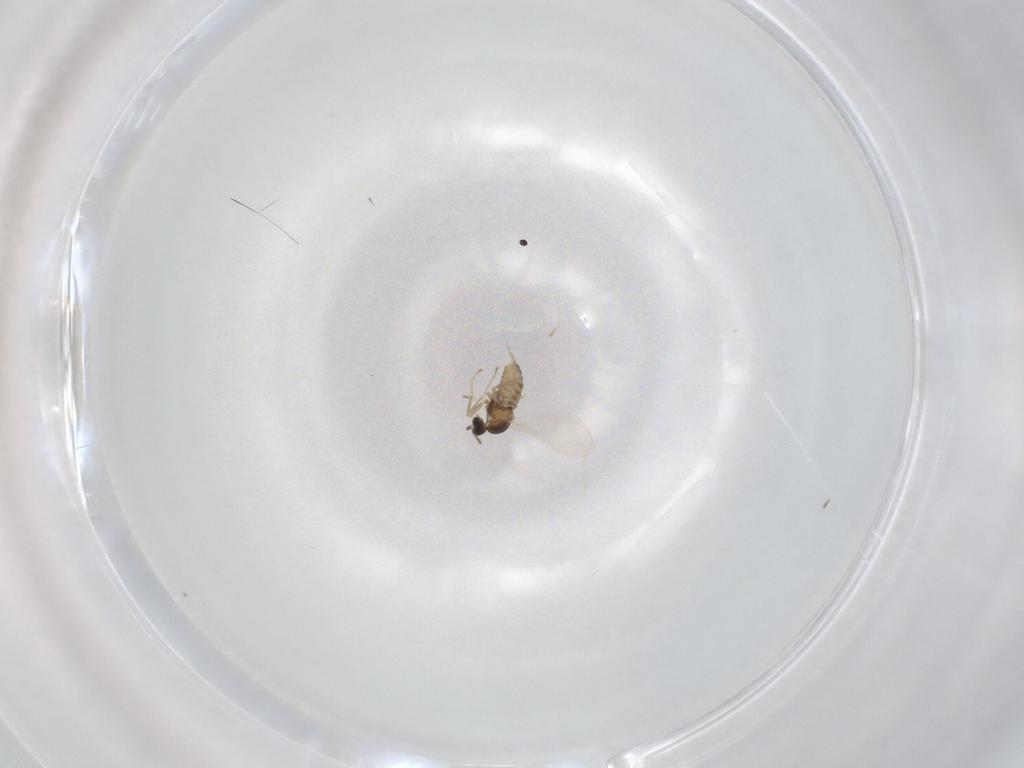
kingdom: Animalia
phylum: Arthropoda
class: Insecta
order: Diptera
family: Cecidomyiidae
